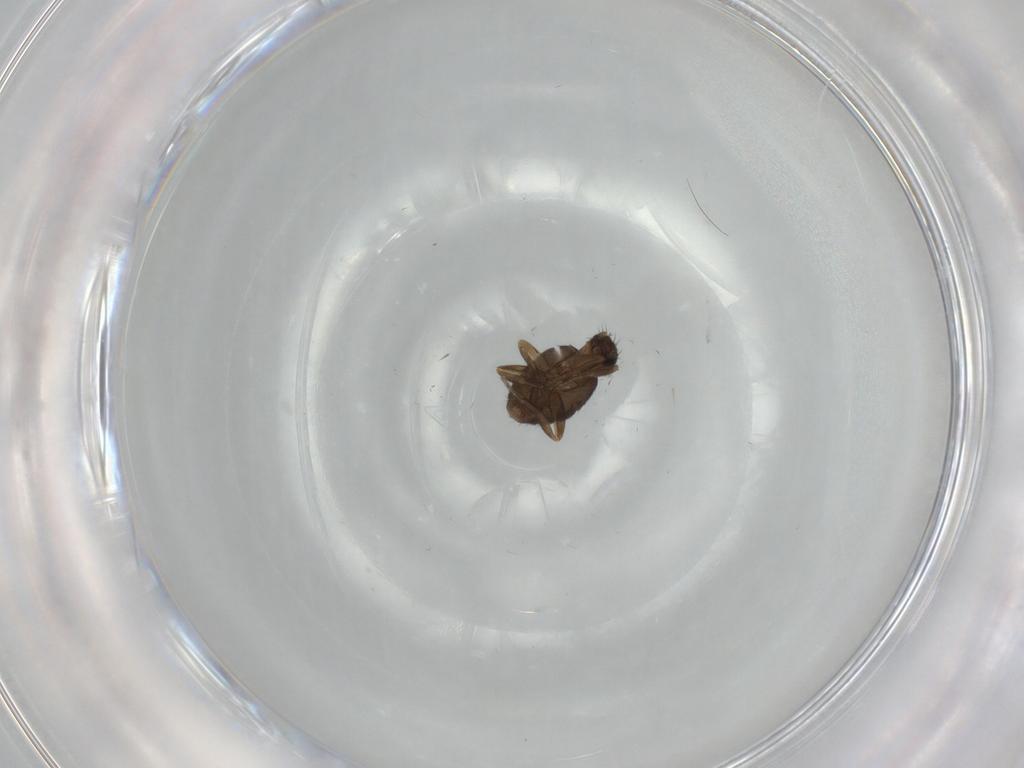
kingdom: Animalia
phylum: Arthropoda
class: Insecta
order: Diptera
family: Phoridae
